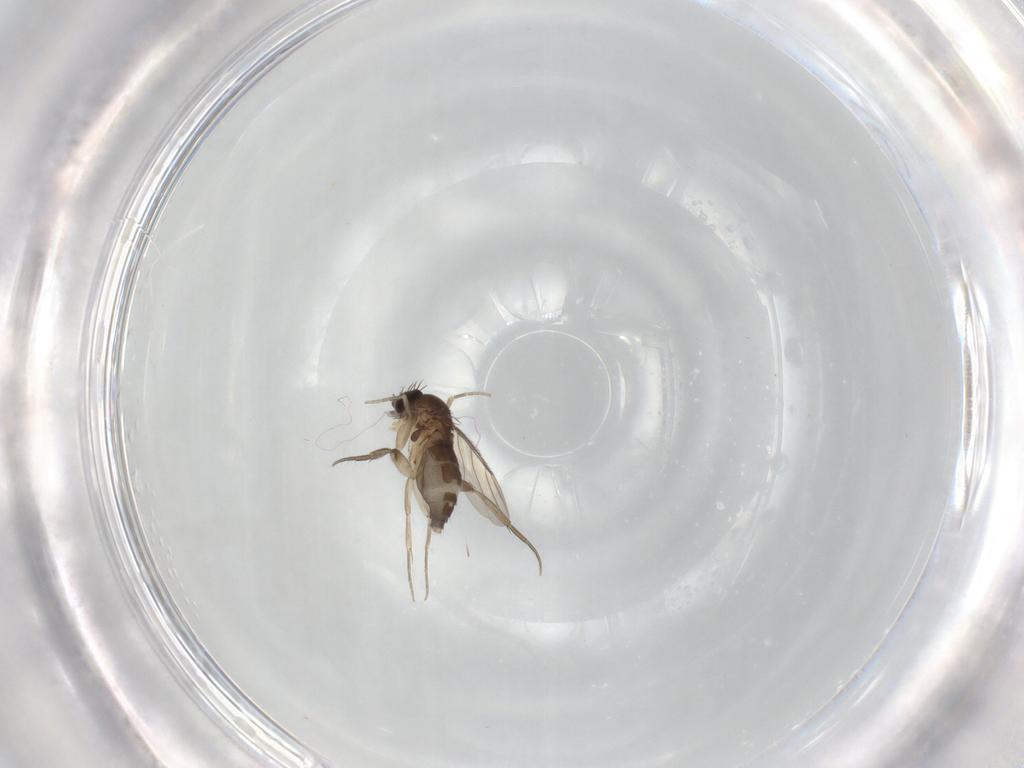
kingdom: Animalia
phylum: Arthropoda
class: Insecta
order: Diptera
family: Phoridae
